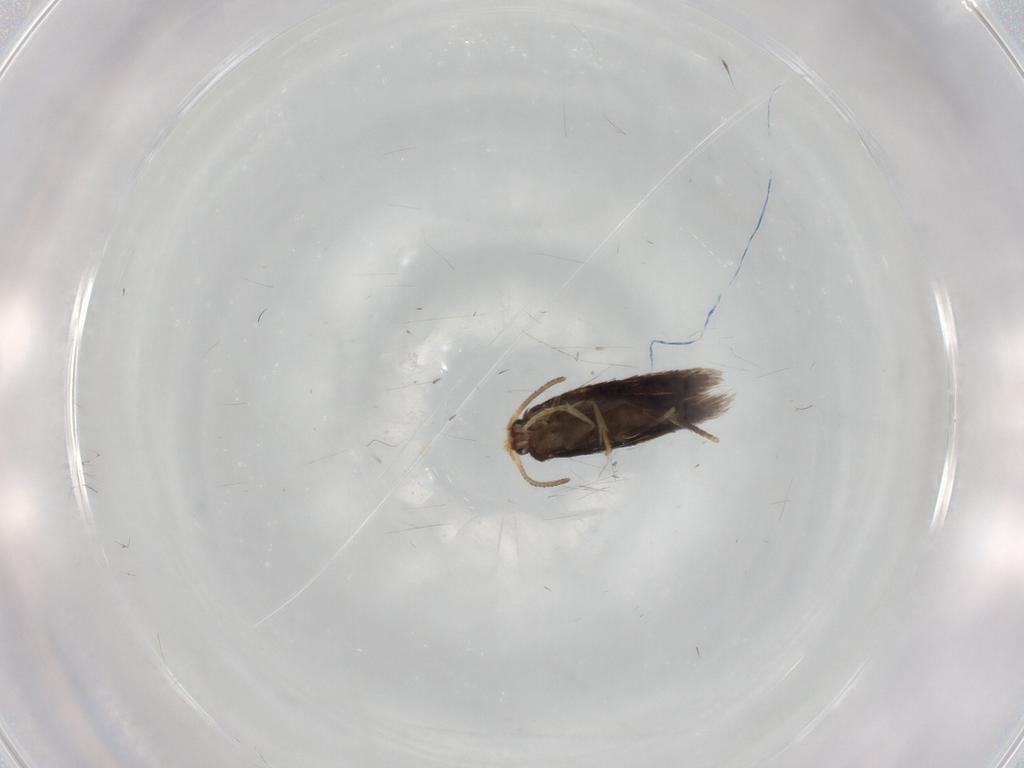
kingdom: Animalia
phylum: Arthropoda
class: Insecta
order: Lepidoptera
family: Nepticulidae
